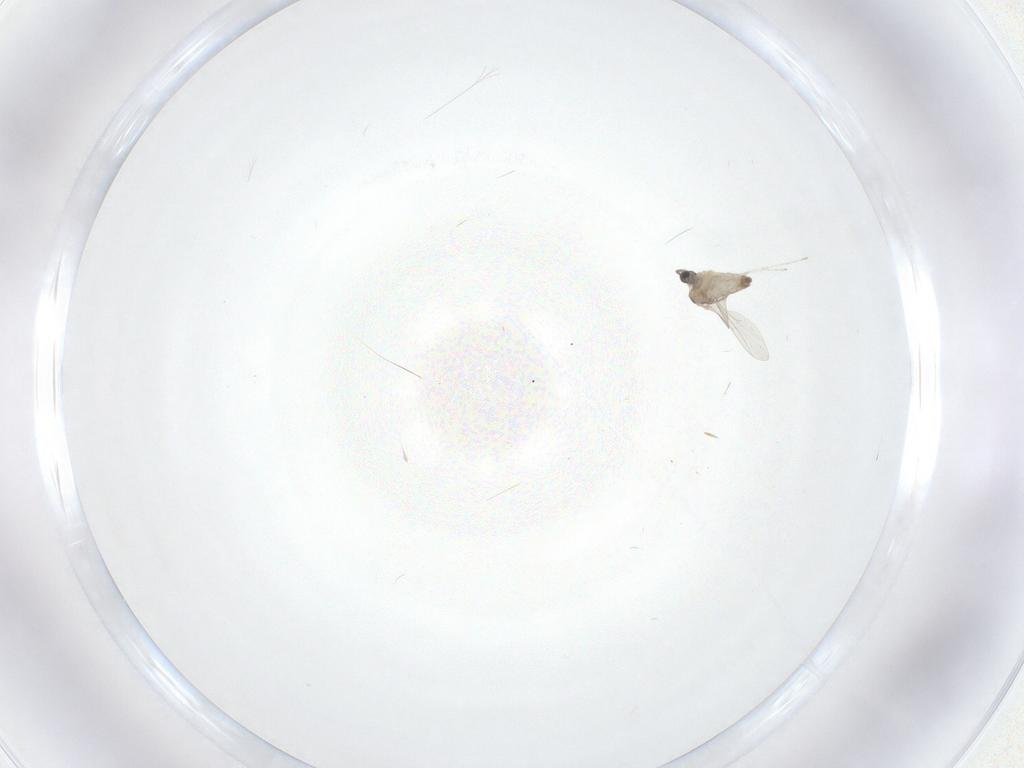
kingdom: Animalia
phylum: Arthropoda
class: Insecta
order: Diptera
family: Cecidomyiidae
